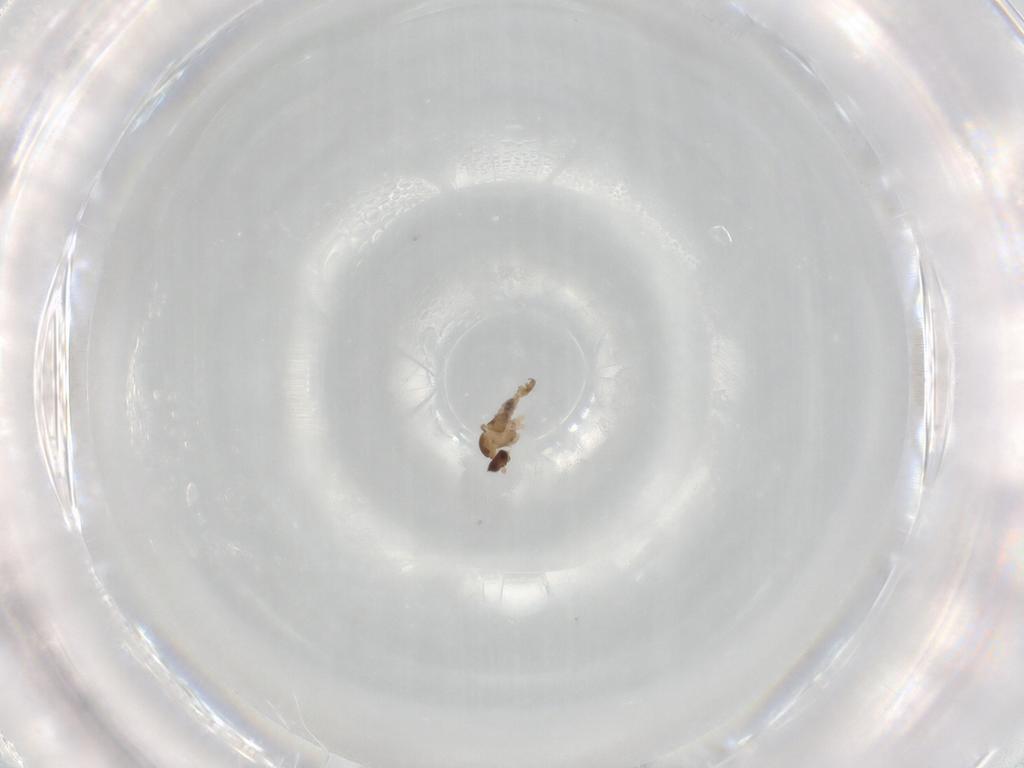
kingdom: Animalia
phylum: Arthropoda
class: Insecta
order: Diptera
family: Cecidomyiidae
